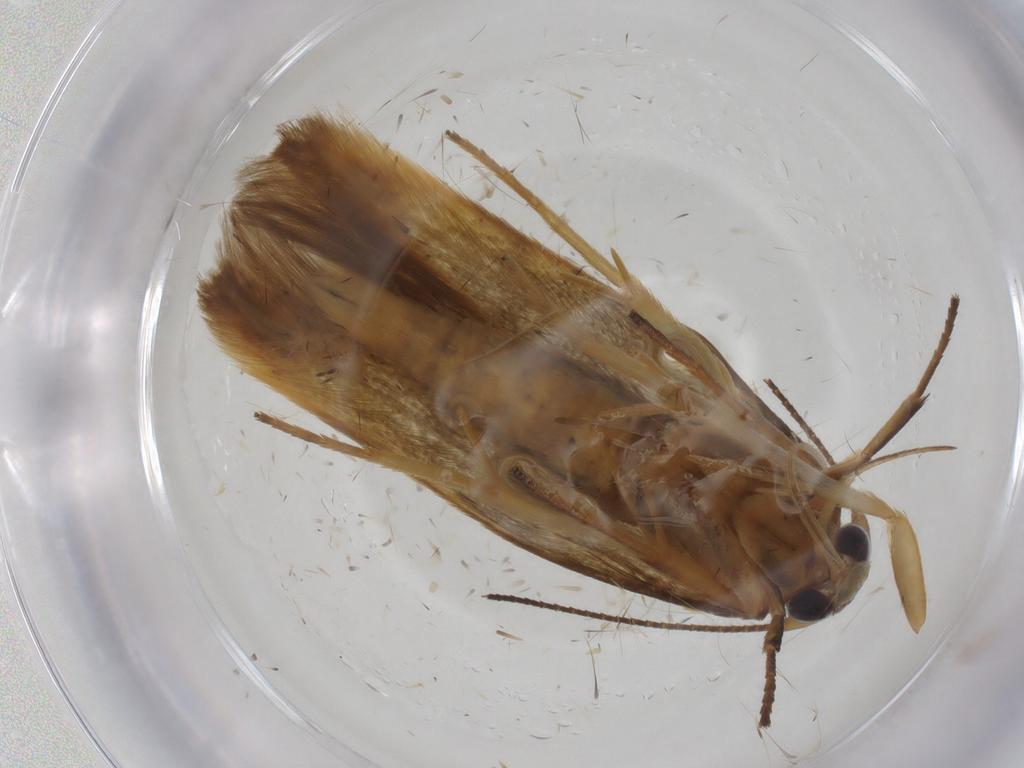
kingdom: Animalia
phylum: Arthropoda
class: Insecta
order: Lepidoptera
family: Stathmopodidae
